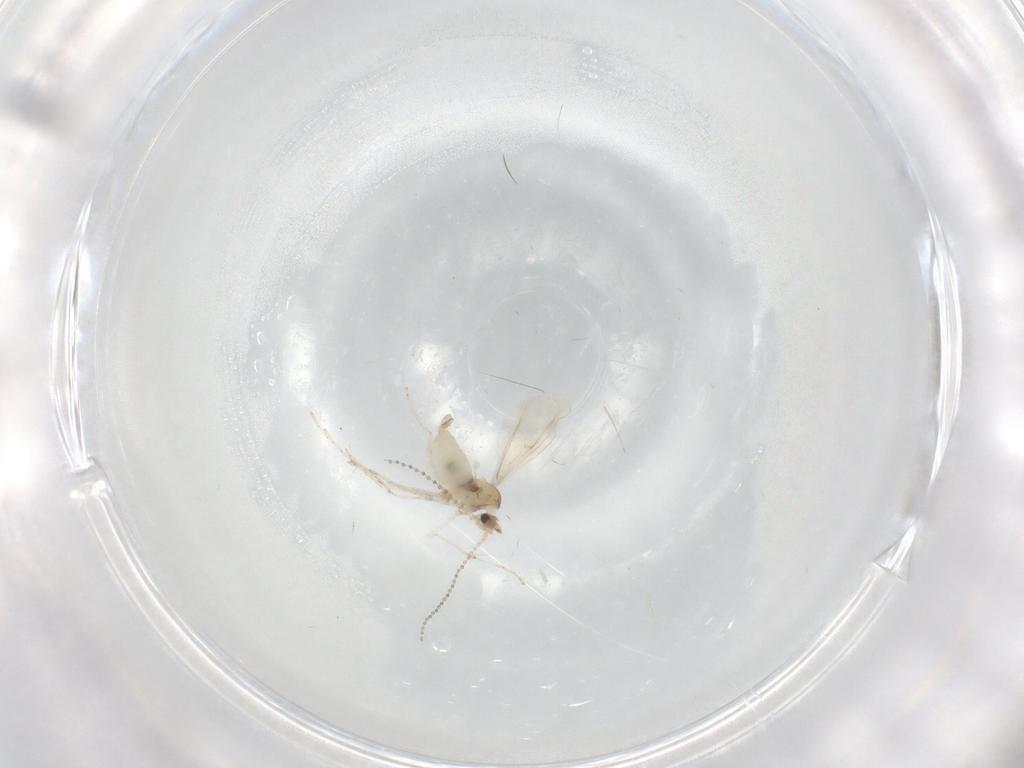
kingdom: Animalia
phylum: Arthropoda
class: Insecta
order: Diptera
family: Cecidomyiidae
